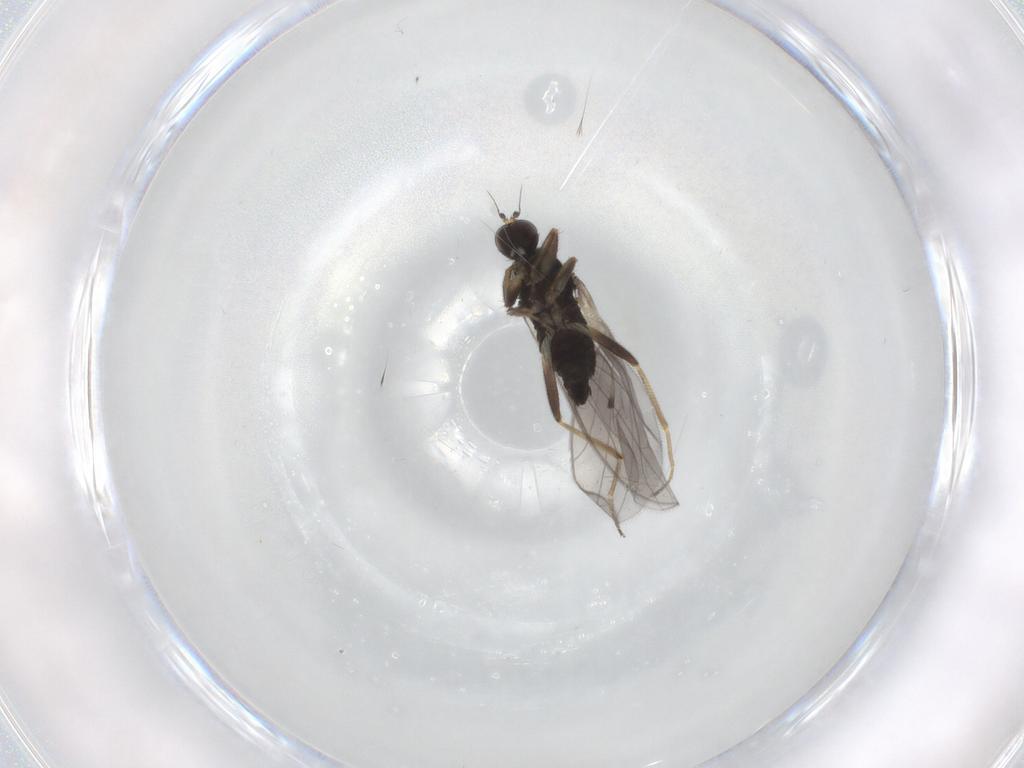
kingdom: Animalia
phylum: Arthropoda
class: Insecta
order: Diptera
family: Hybotidae
